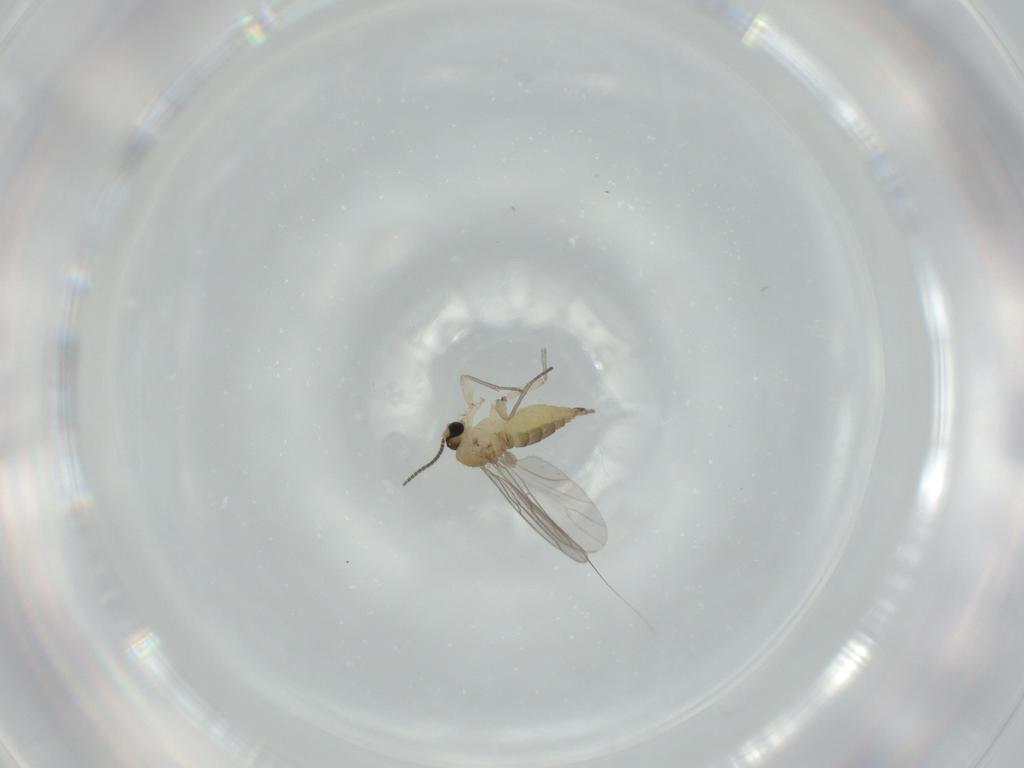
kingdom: Animalia
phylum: Arthropoda
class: Insecta
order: Diptera
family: Sciaridae
